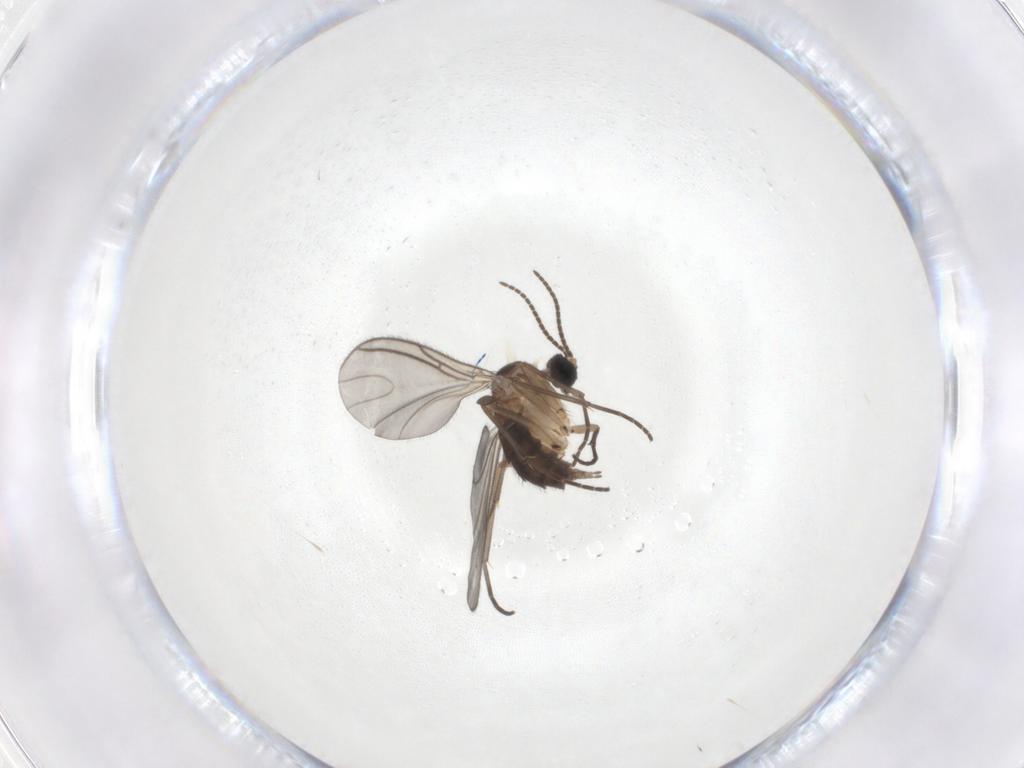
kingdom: Animalia
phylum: Arthropoda
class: Insecta
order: Diptera
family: Sciaridae
